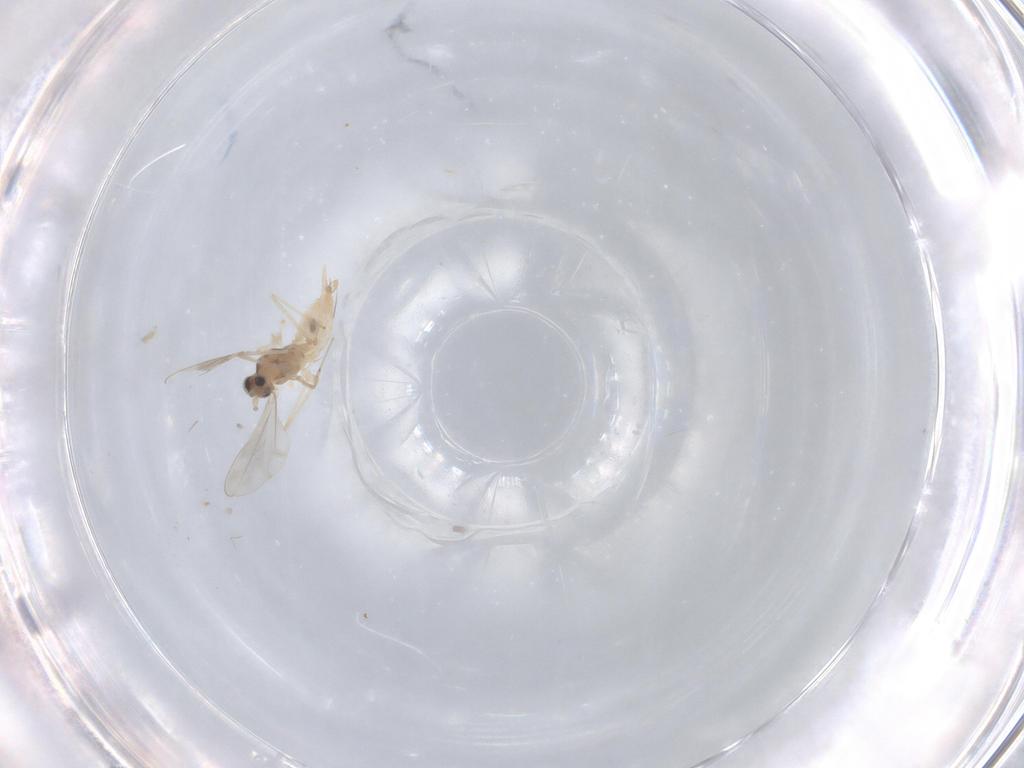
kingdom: Animalia
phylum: Arthropoda
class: Insecta
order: Diptera
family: Cecidomyiidae
